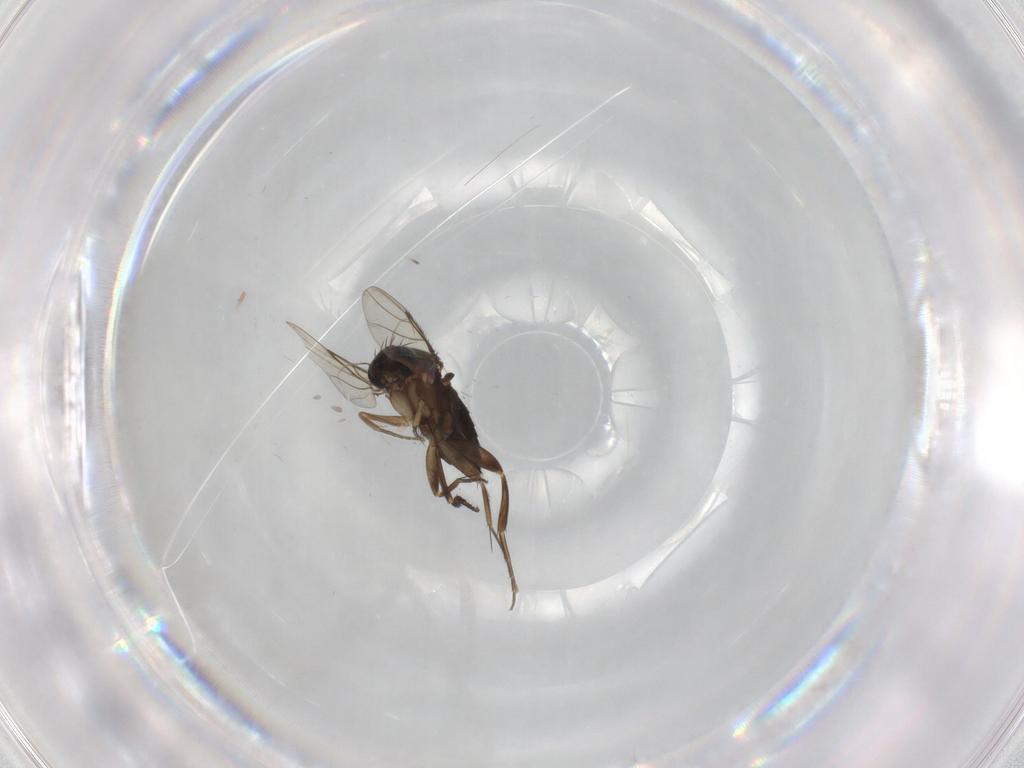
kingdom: Animalia
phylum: Arthropoda
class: Insecta
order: Diptera
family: Phoridae
